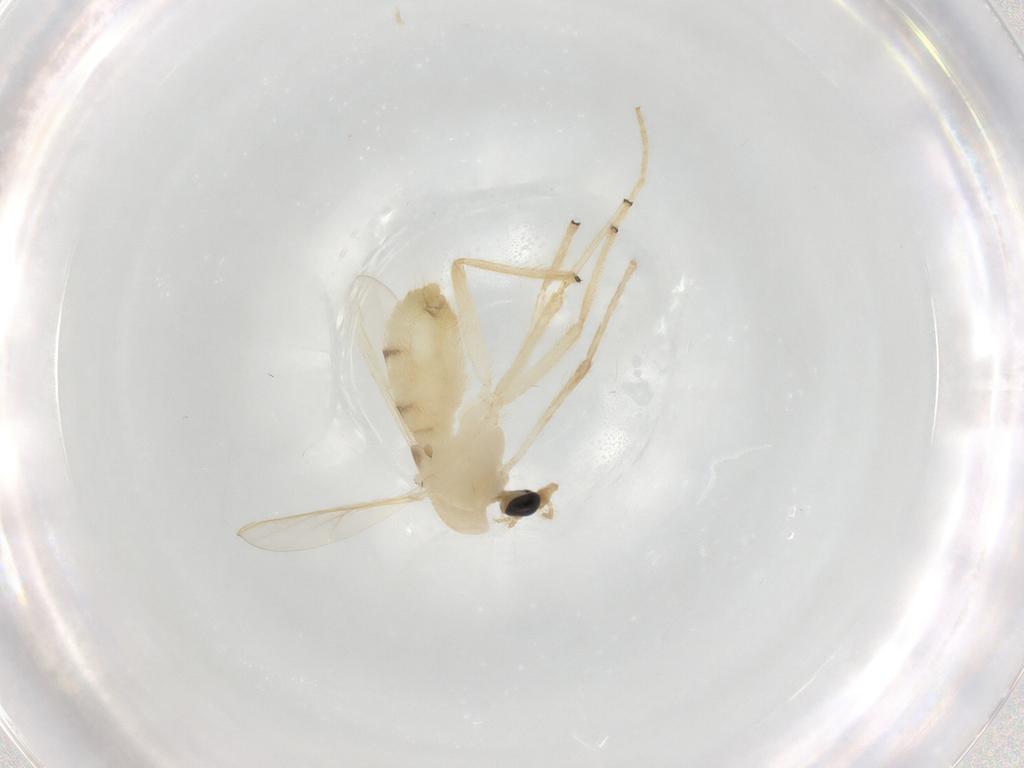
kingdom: Animalia
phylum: Arthropoda
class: Insecta
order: Diptera
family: Chironomidae
